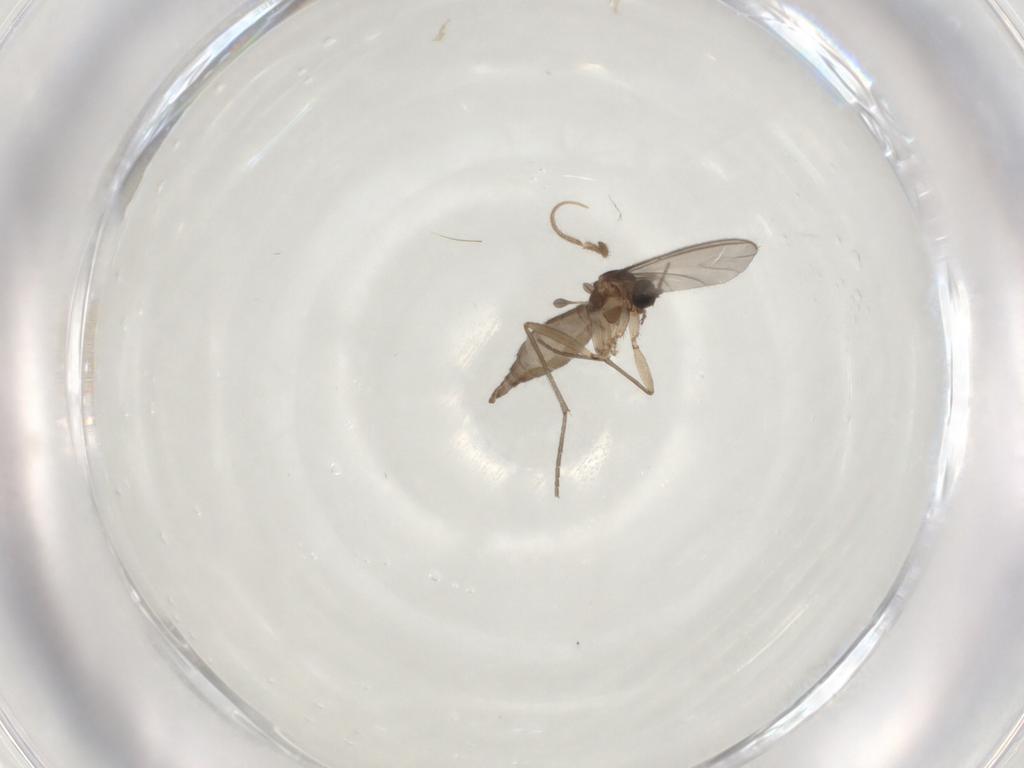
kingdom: Animalia
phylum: Arthropoda
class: Insecta
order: Diptera
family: Sciaridae
